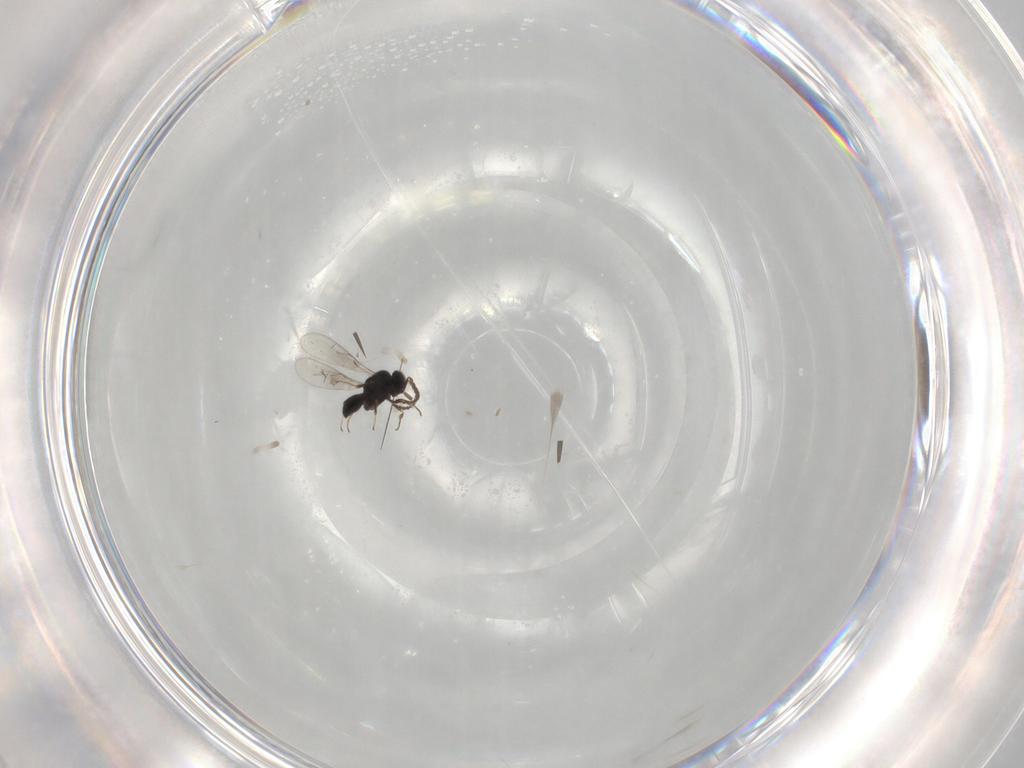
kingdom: Animalia
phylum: Arthropoda
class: Insecta
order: Hymenoptera
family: Scelionidae
